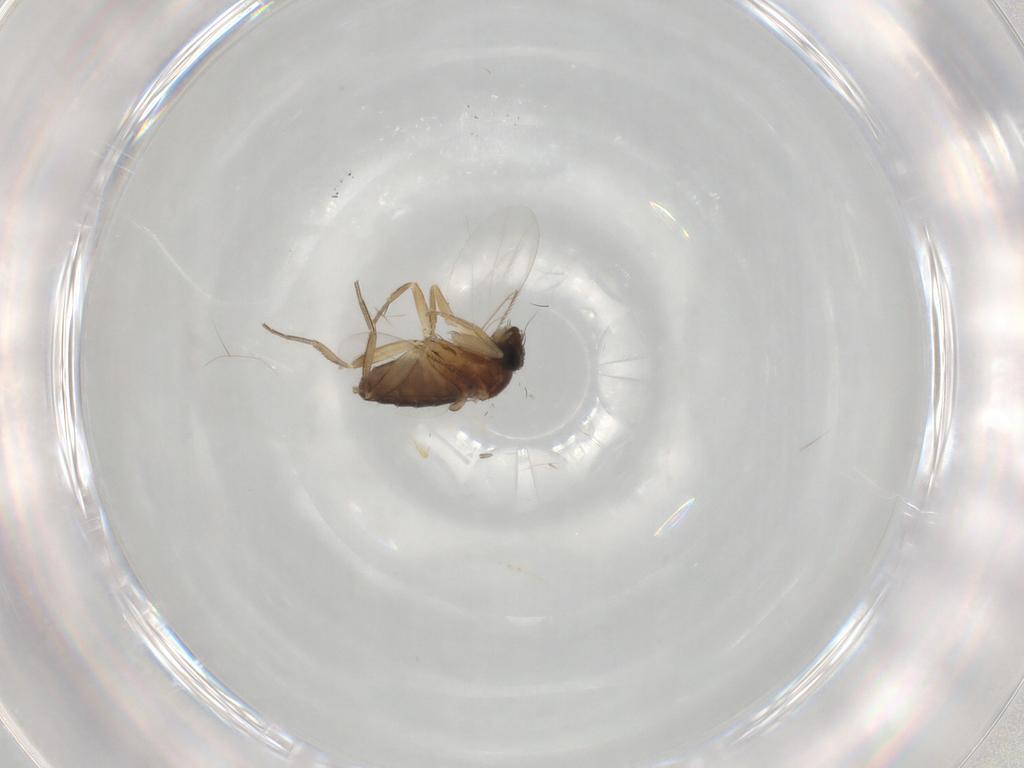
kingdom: Animalia
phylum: Arthropoda
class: Insecta
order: Diptera
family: Phoridae
